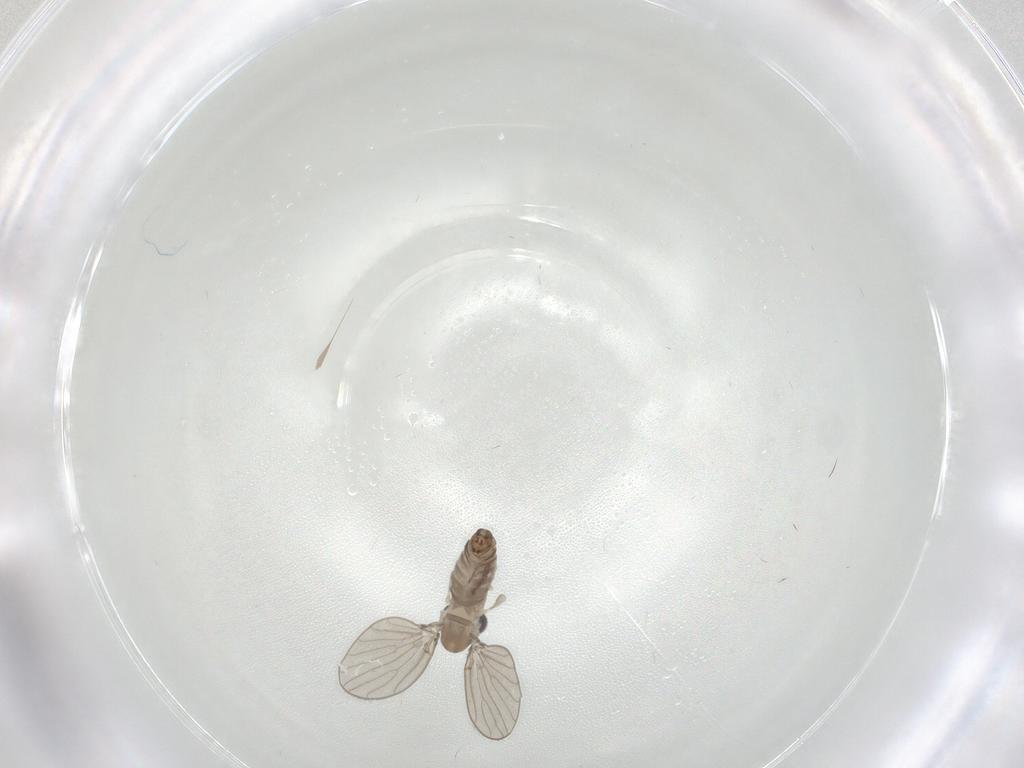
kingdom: Animalia
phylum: Arthropoda
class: Insecta
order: Diptera
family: Psychodidae
